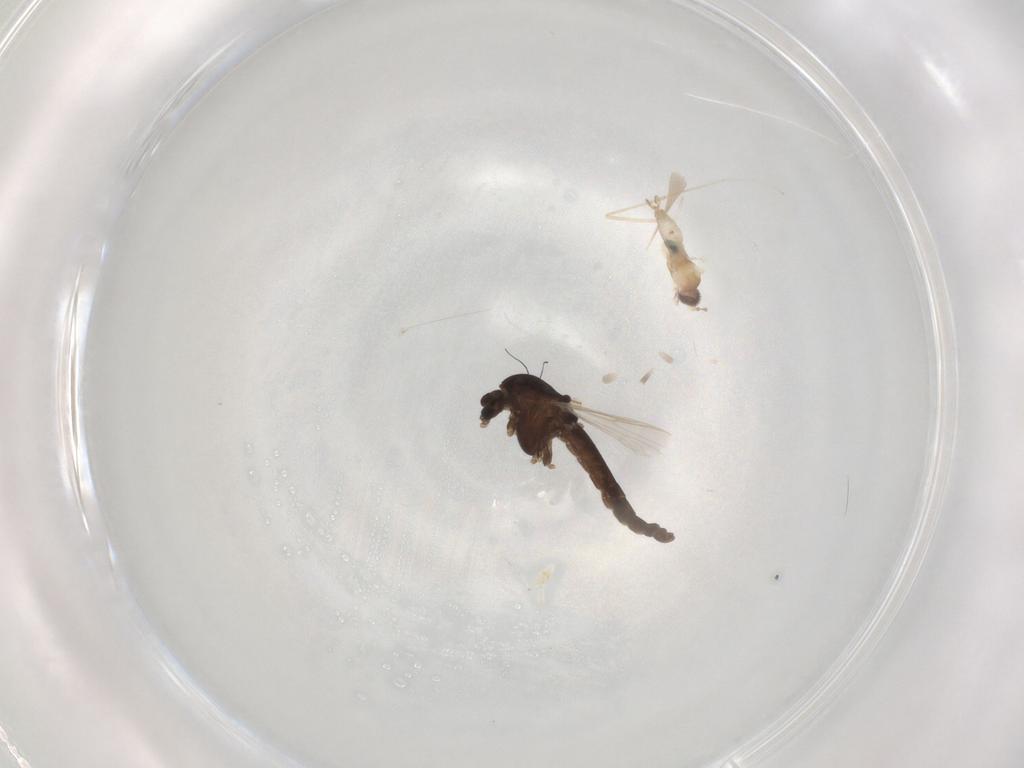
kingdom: Animalia
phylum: Arthropoda
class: Insecta
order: Diptera
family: Chironomidae
